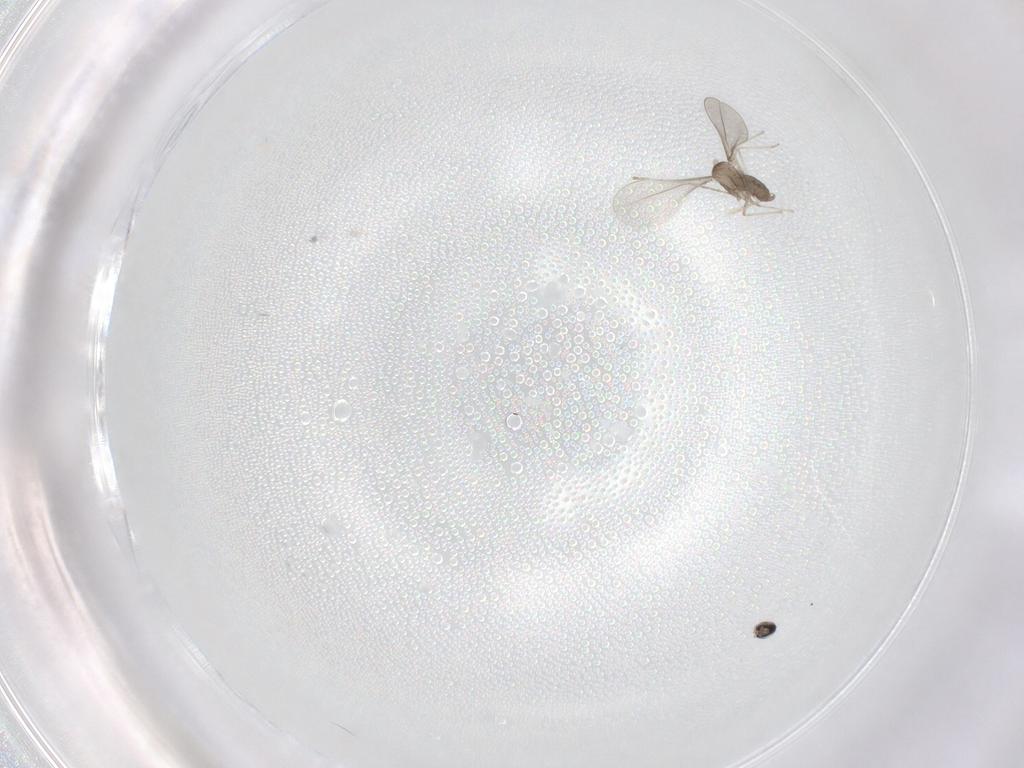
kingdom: Animalia
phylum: Arthropoda
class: Insecta
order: Diptera
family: Cecidomyiidae
